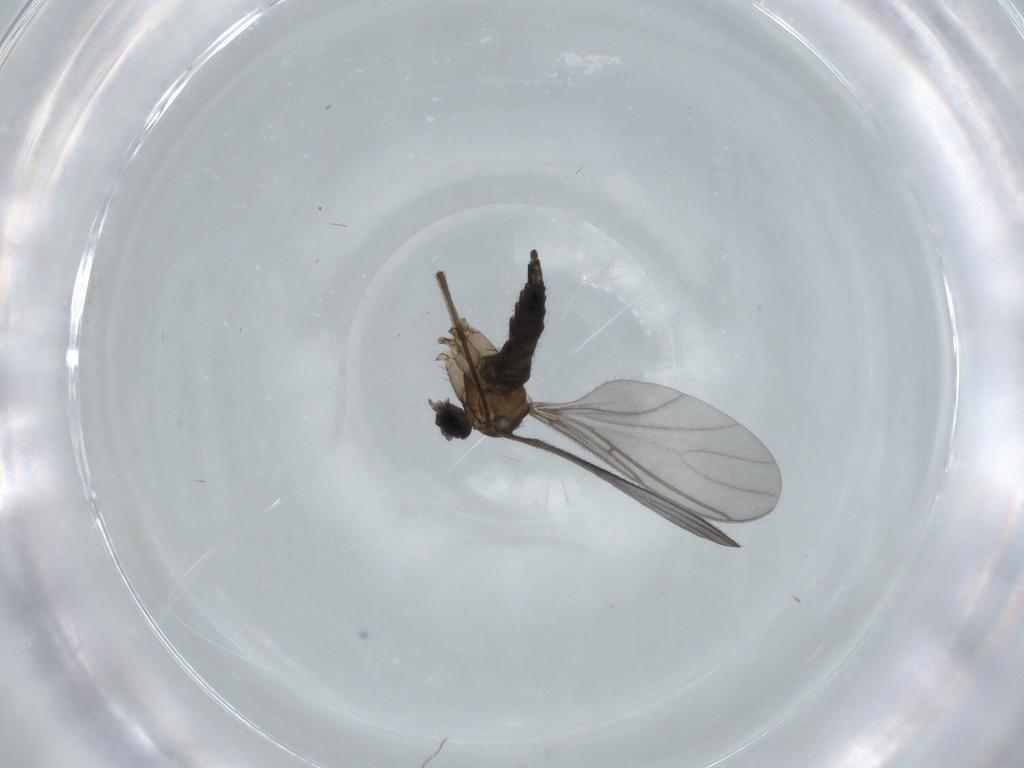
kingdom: Animalia
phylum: Arthropoda
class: Insecta
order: Diptera
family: Sciaridae
